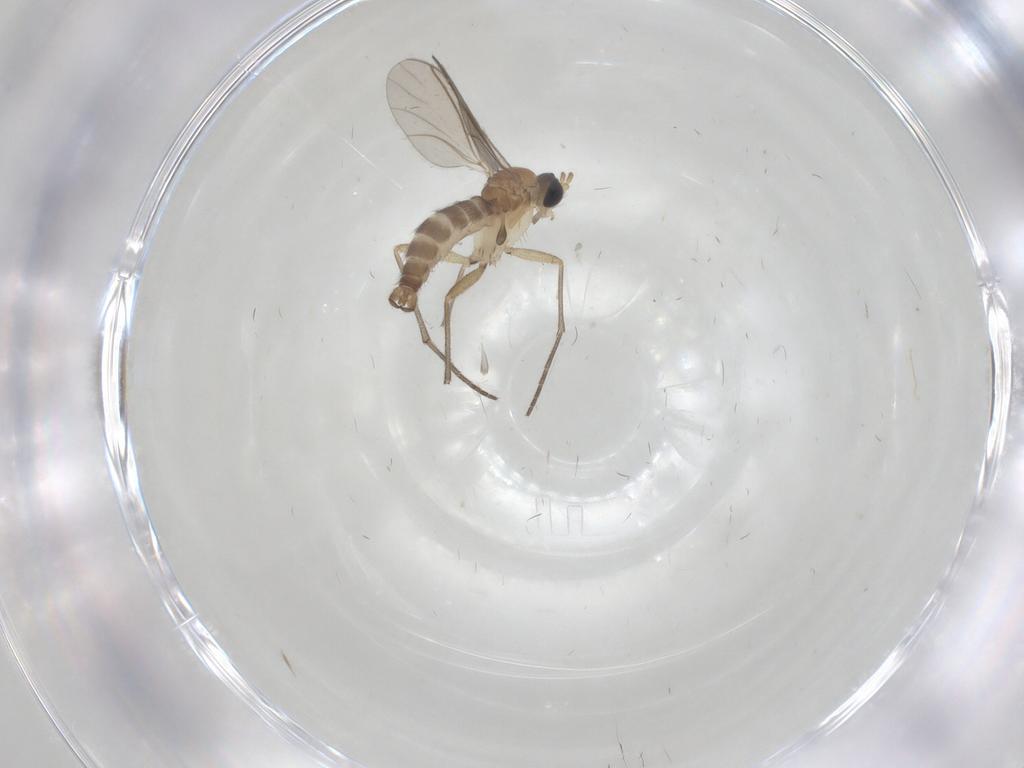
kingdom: Animalia
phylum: Arthropoda
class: Insecta
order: Diptera
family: Sciaridae
